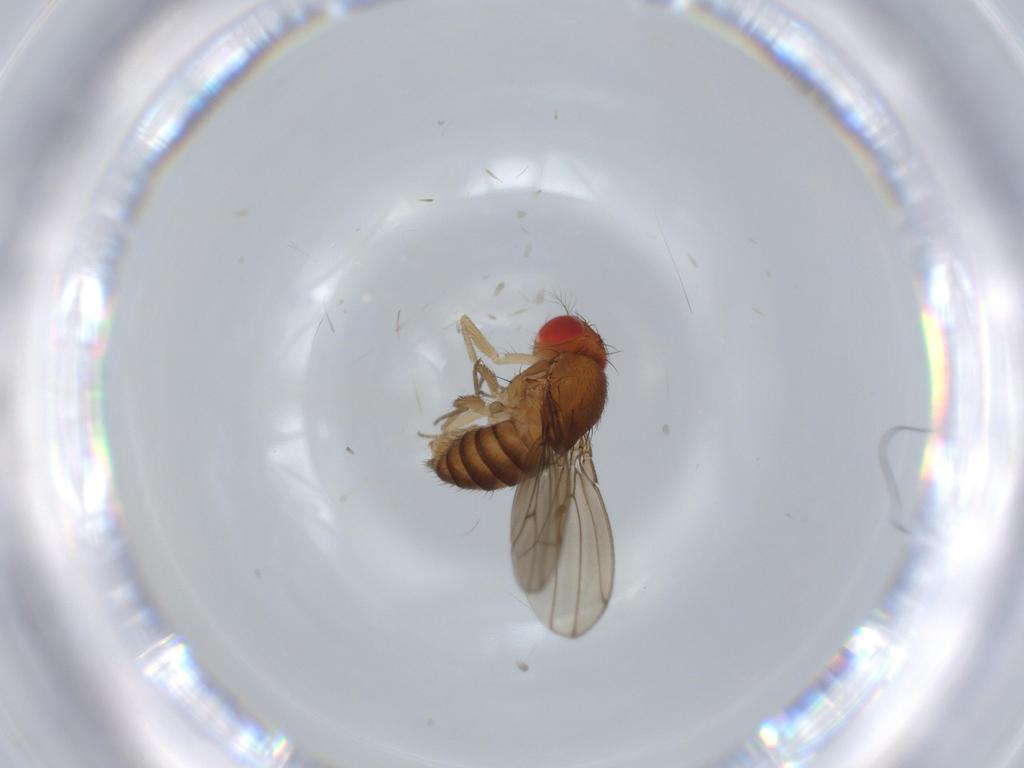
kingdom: Animalia
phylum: Arthropoda
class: Insecta
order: Diptera
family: Drosophilidae
